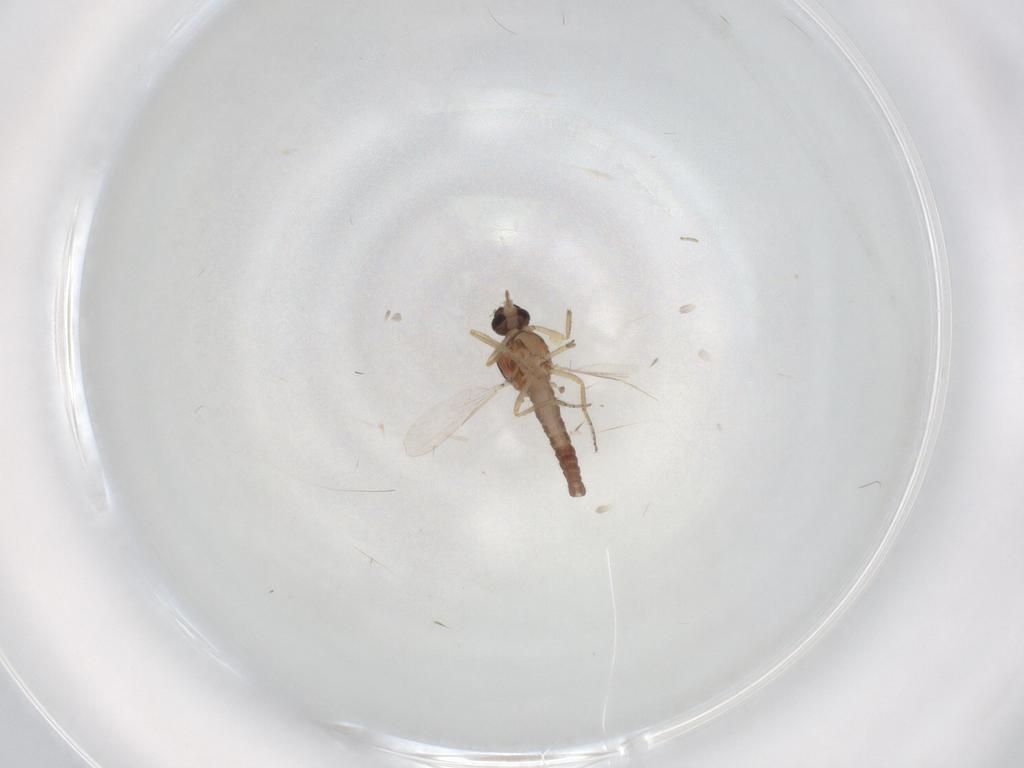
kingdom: Animalia
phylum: Arthropoda
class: Insecta
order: Diptera
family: Ceratopogonidae
